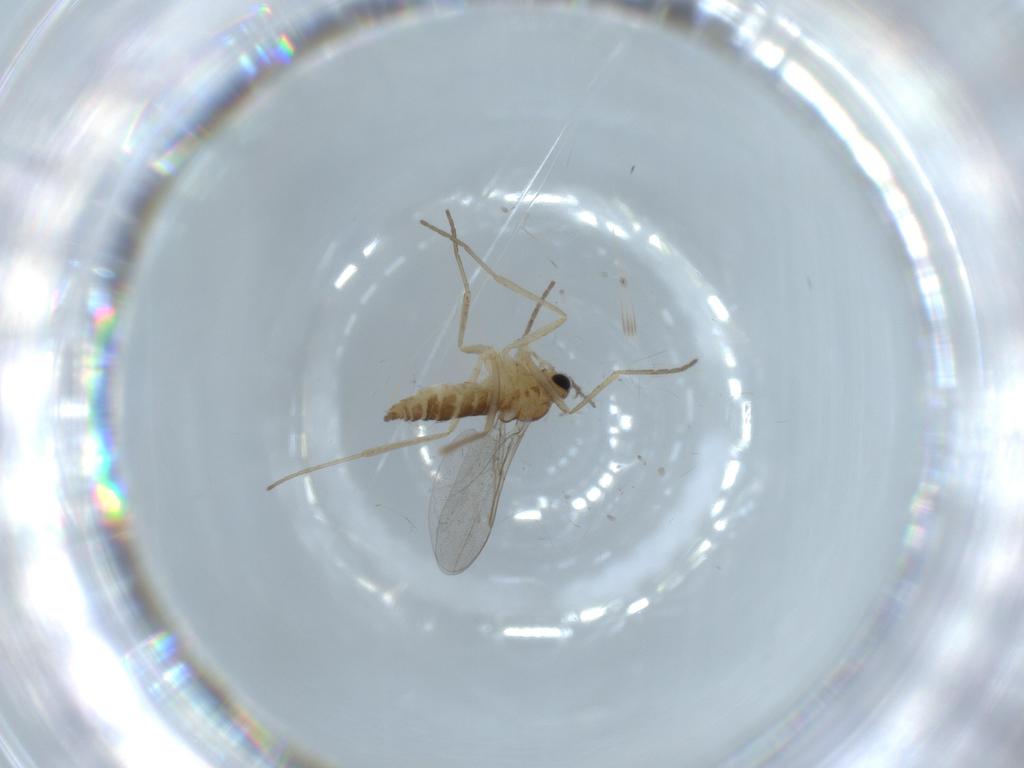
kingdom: Animalia
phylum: Arthropoda
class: Insecta
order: Diptera
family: Cecidomyiidae
